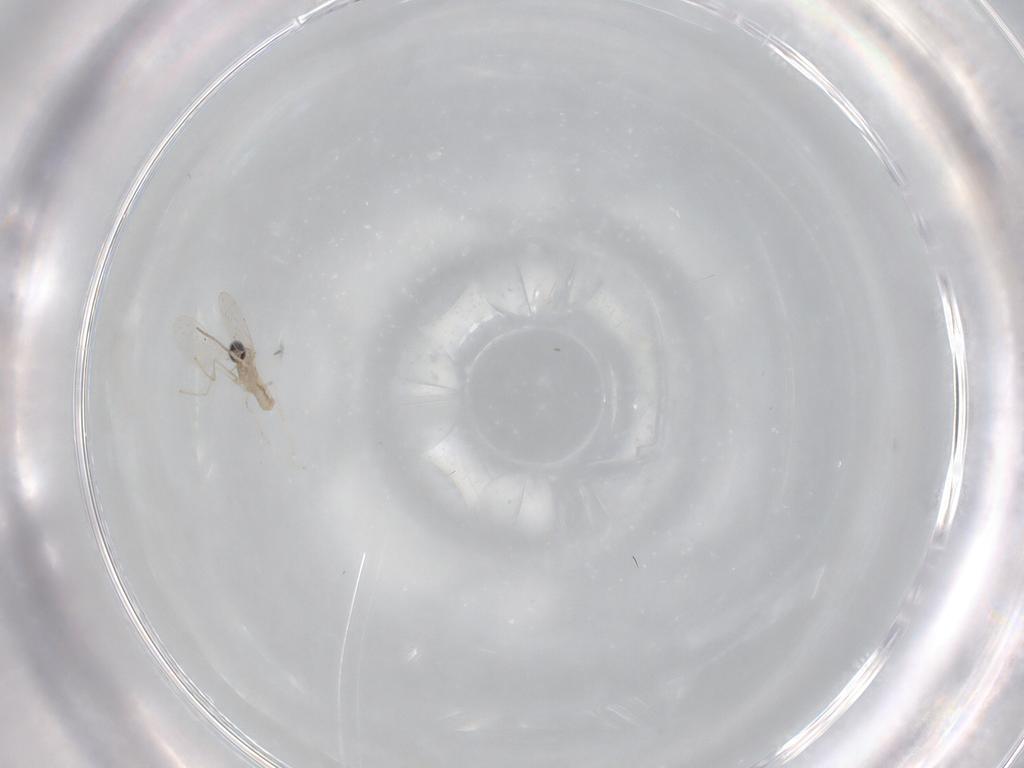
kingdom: Animalia
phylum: Arthropoda
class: Insecta
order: Diptera
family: Cecidomyiidae
